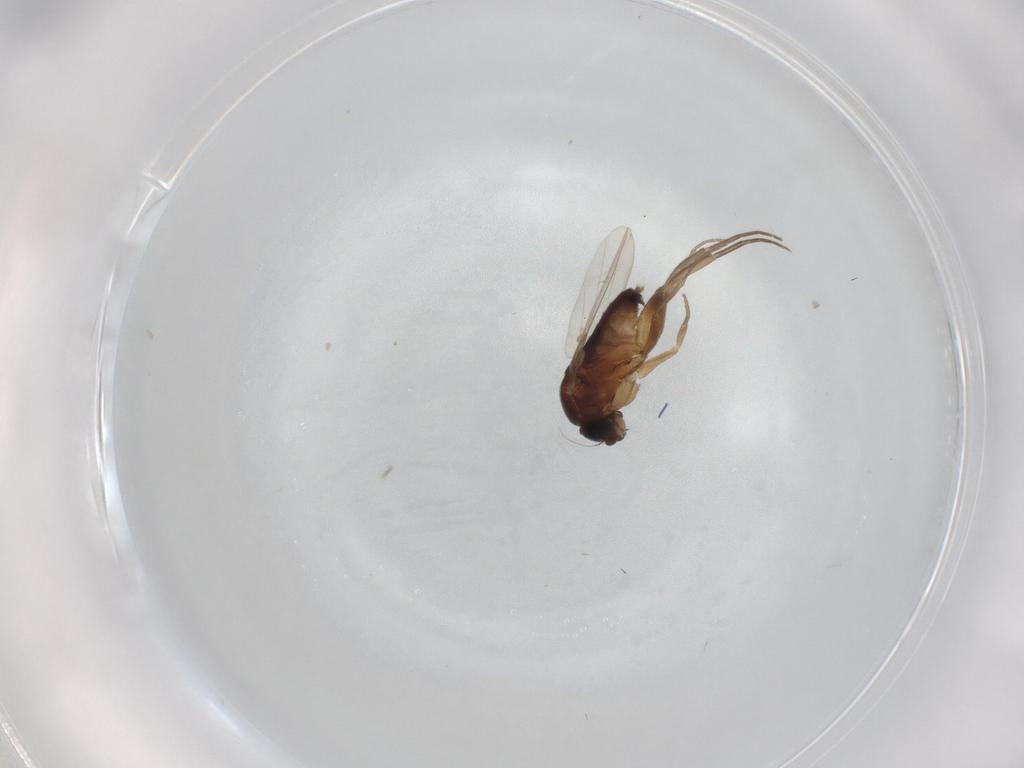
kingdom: Animalia
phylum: Arthropoda
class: Insecta
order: Diptera
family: Phoridae
